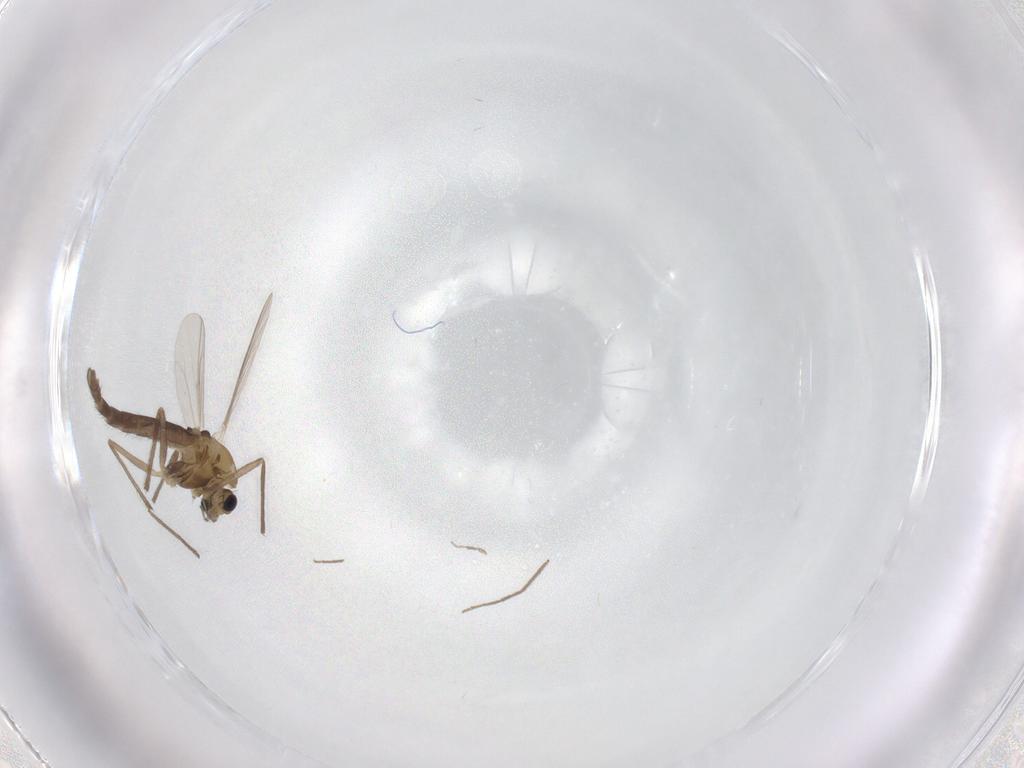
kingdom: Animalia
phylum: Arthropoda
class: Insecta
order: Diptera
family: Chironomidae
